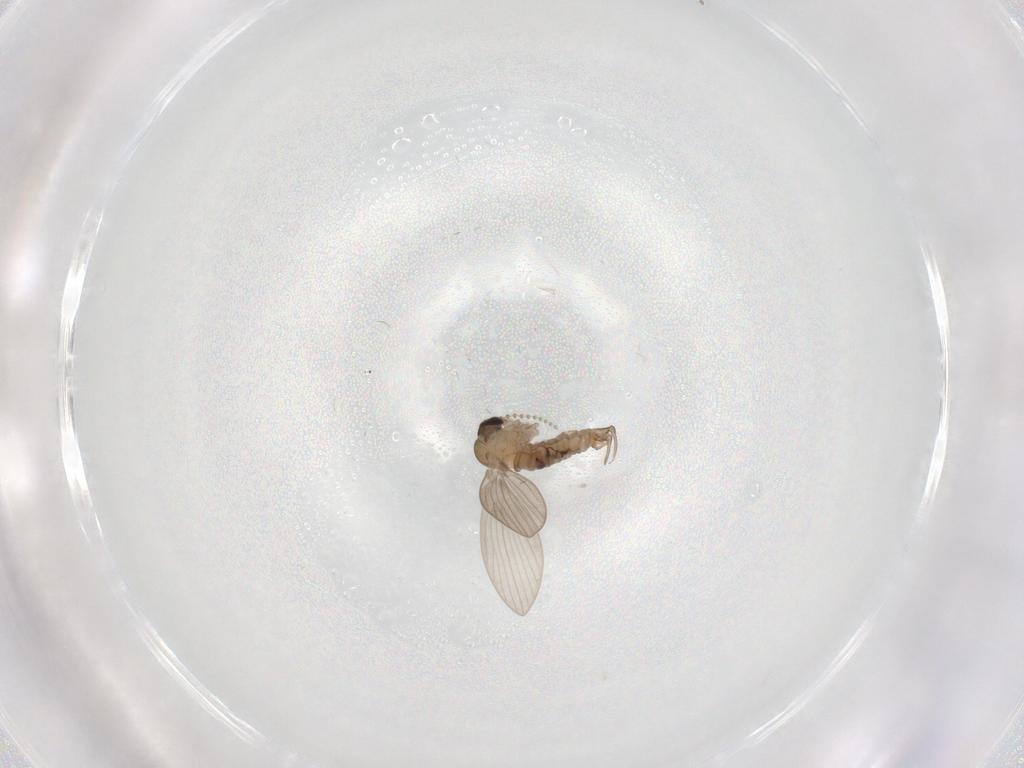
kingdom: Animalia
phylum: Arthropoda
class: Insecta
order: Diptera
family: Psychodidae
